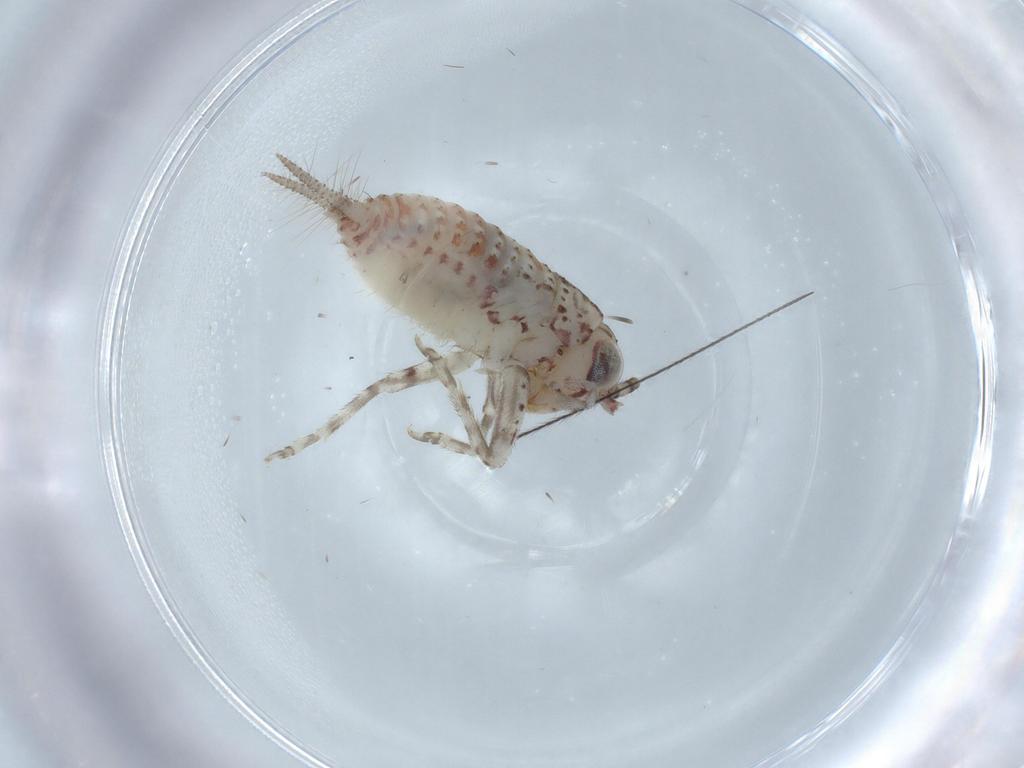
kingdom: Animalia
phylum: Arthropoda
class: Insecta
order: Orthoptera
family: Trigonidiidae
